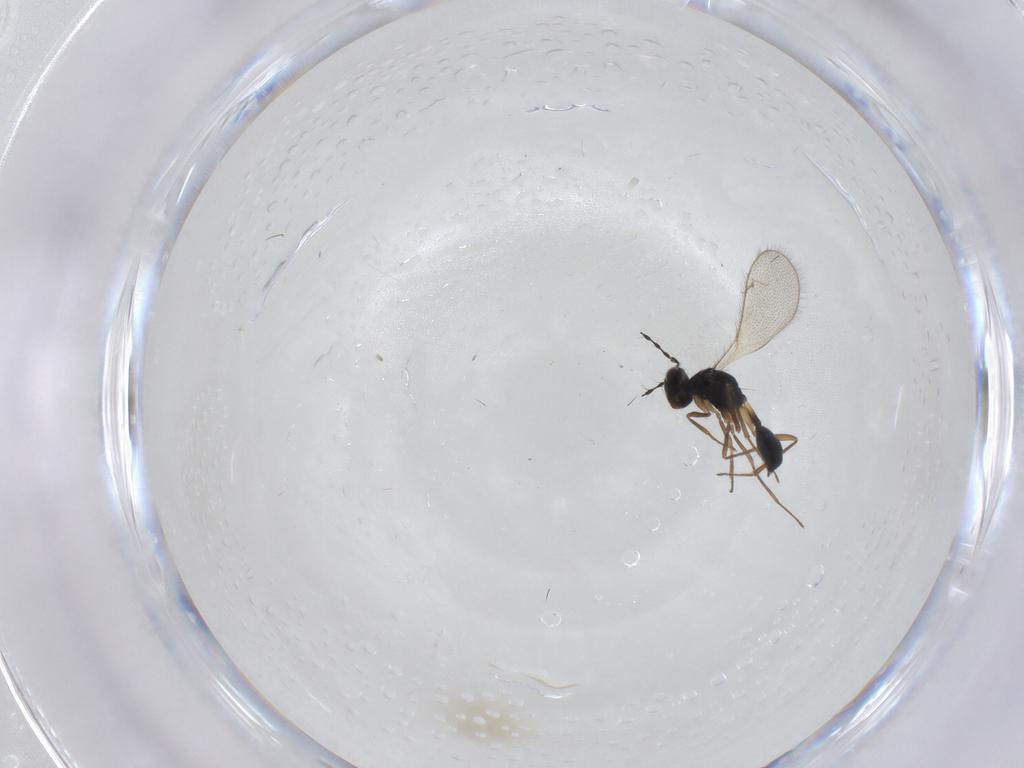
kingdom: Animalia
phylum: Arthropoda
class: Insecta
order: Hymenoptera
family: Diparidae
